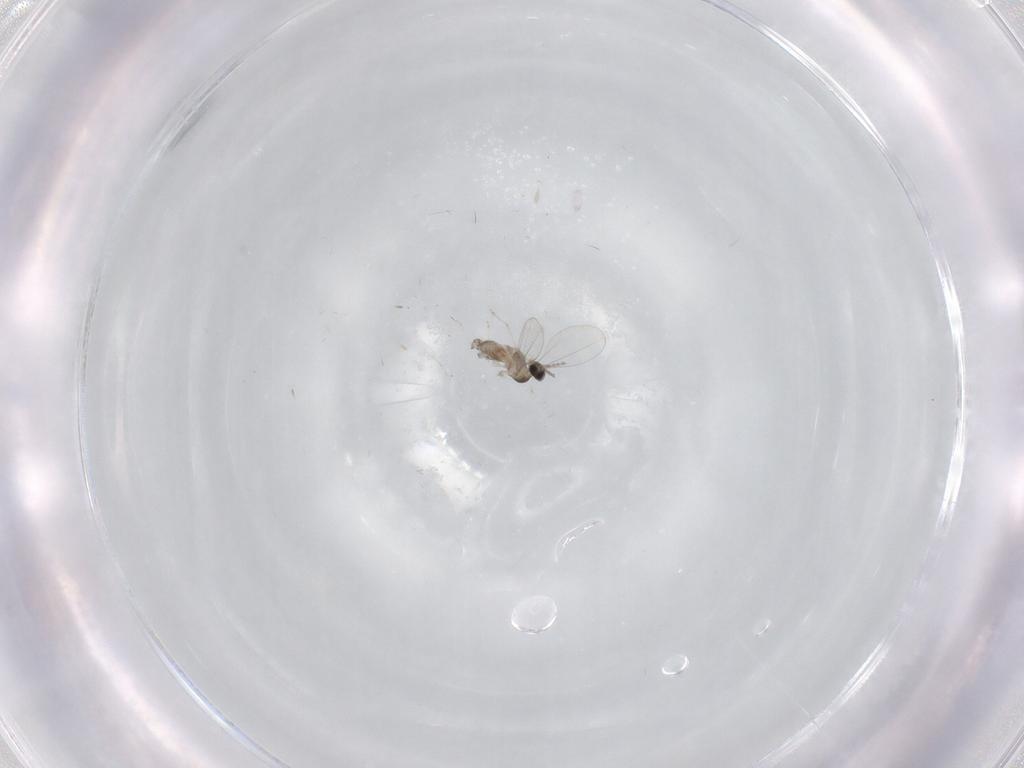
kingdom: Animalia
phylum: Arthropoda
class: Insecta
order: Diptera
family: Cecidomyiidae
